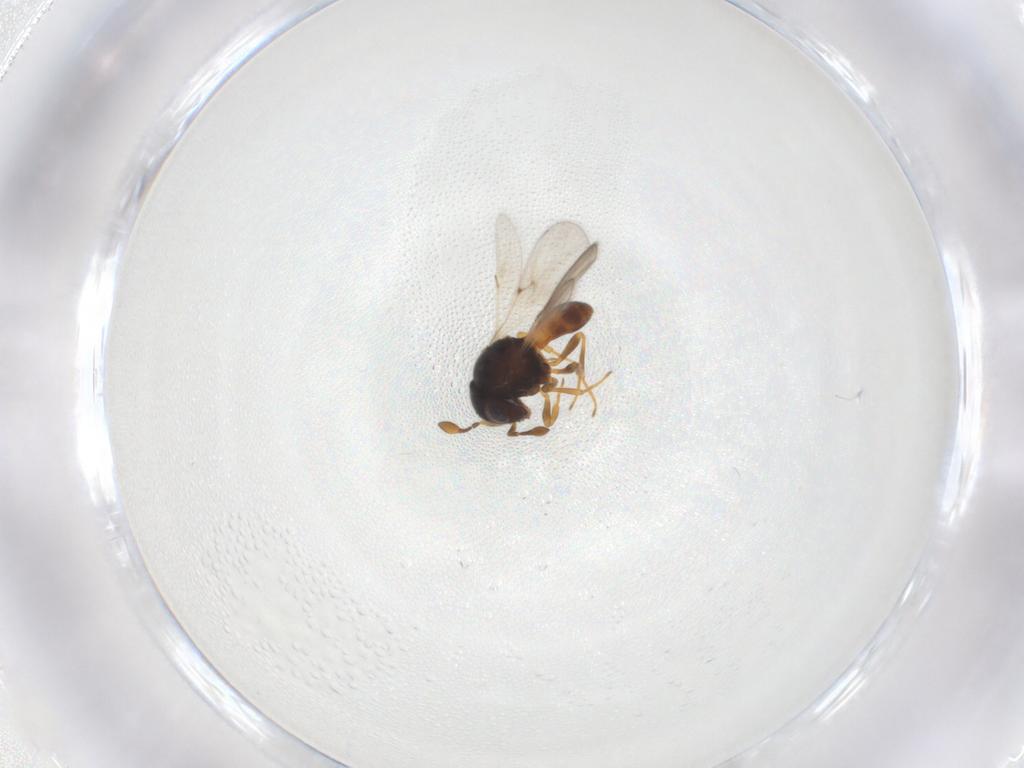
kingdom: Animalia
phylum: Arthropoda
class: Insecta
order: Hymenoptera
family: Scelionidae
